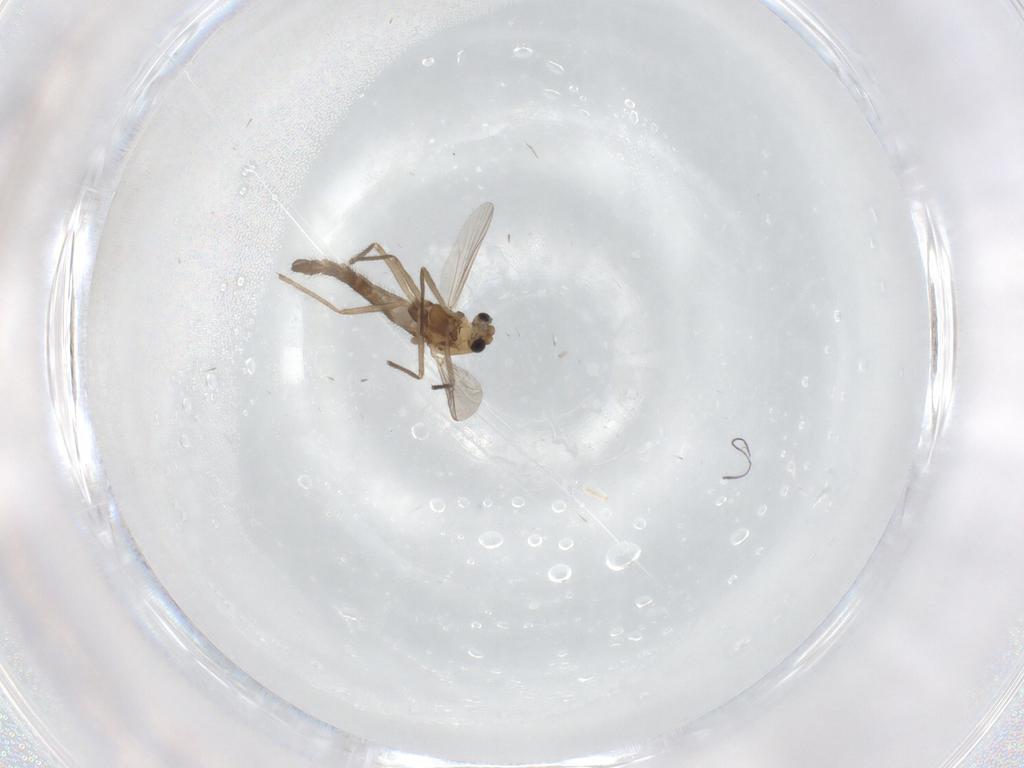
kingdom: Animalia
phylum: Arthropoda
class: Insecta
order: Diptera
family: Chironomidae
